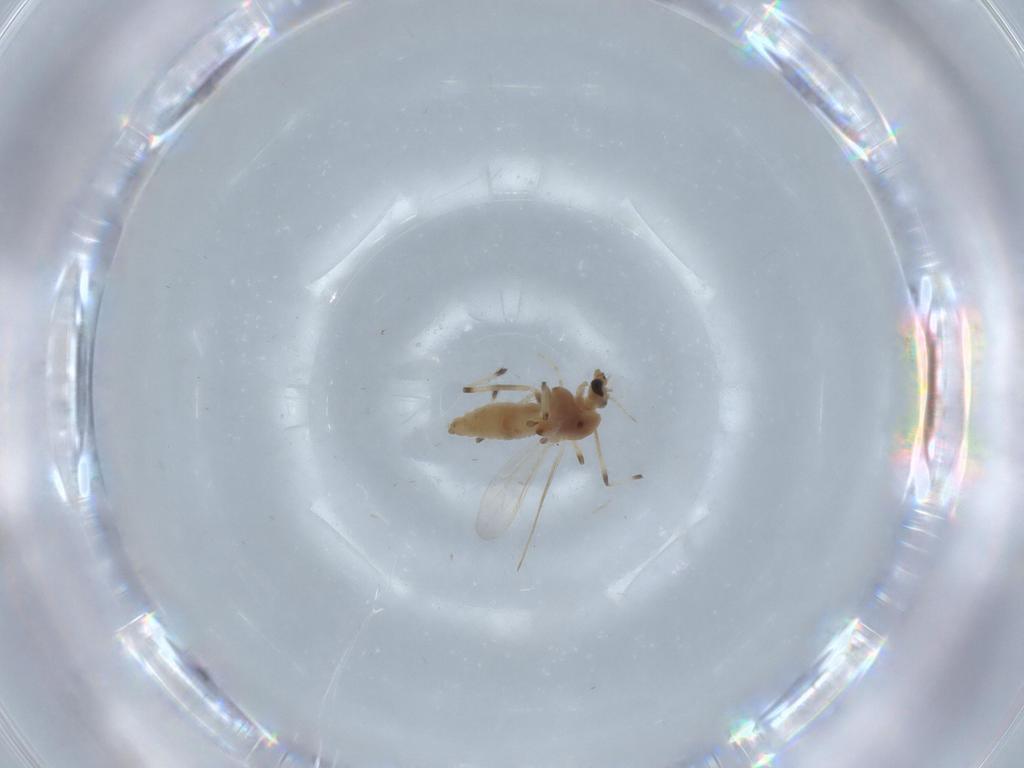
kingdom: Animalia
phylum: Arthropoda
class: Insecta
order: Diptera
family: Chironomidae
